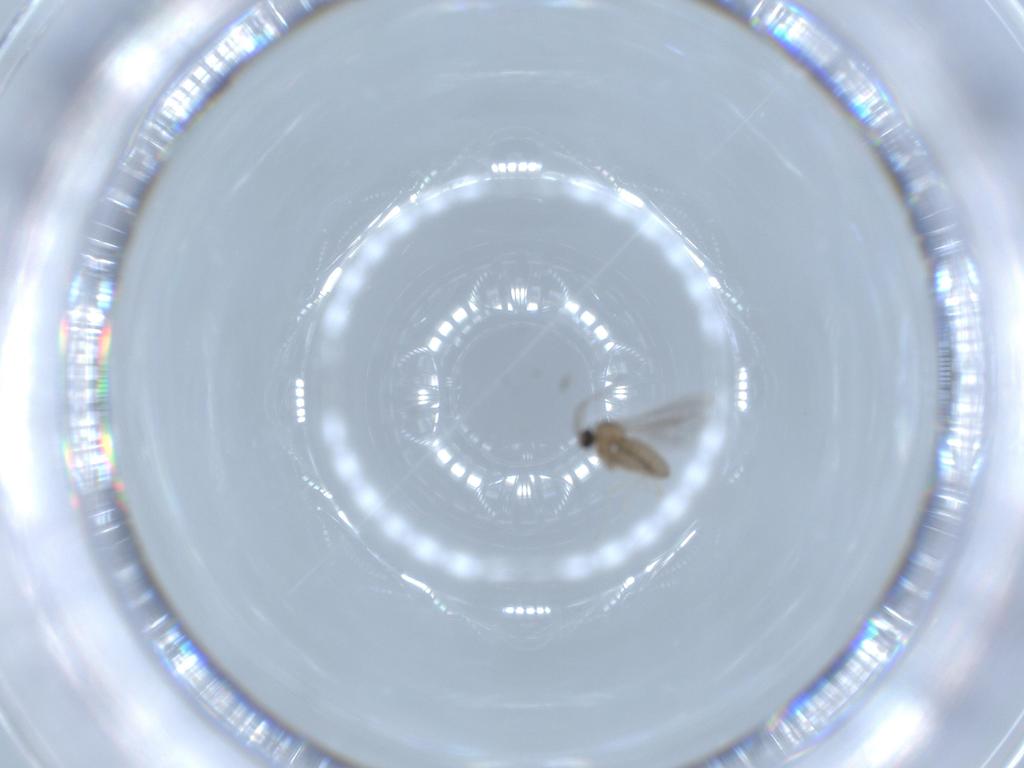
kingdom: Animalia
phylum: Arthropoda
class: Insecta
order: Diptera
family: Cecidomyiidae
